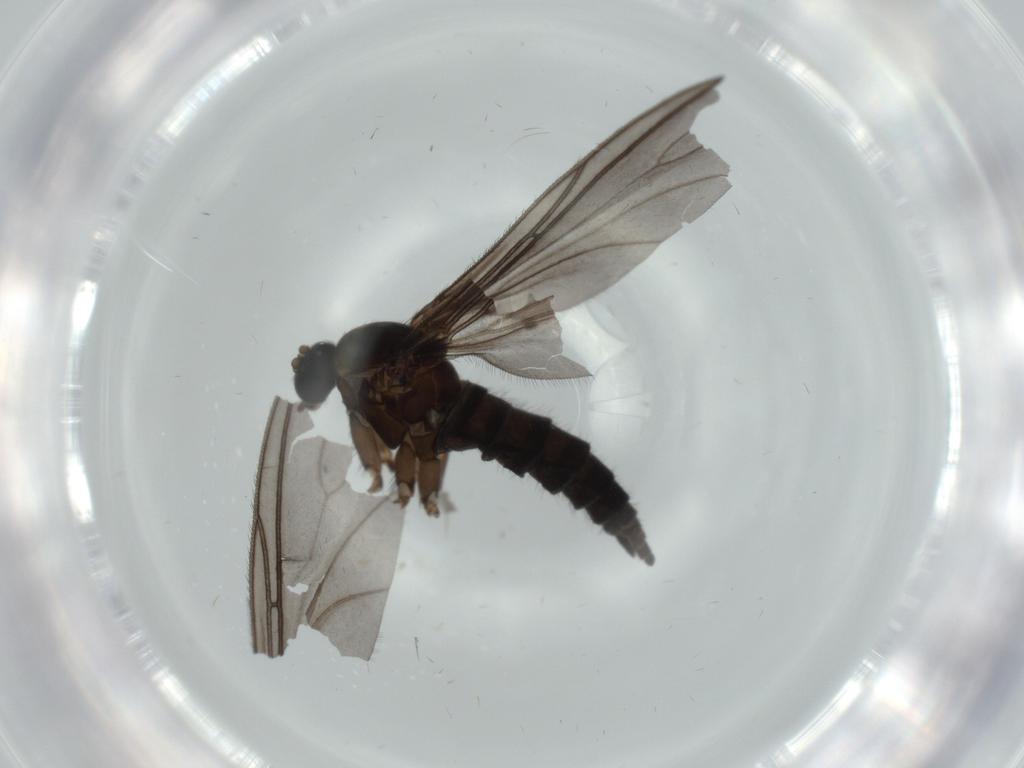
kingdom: Animalia
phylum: Arthropoda
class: Insecta
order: Diptera
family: Sciaridae
